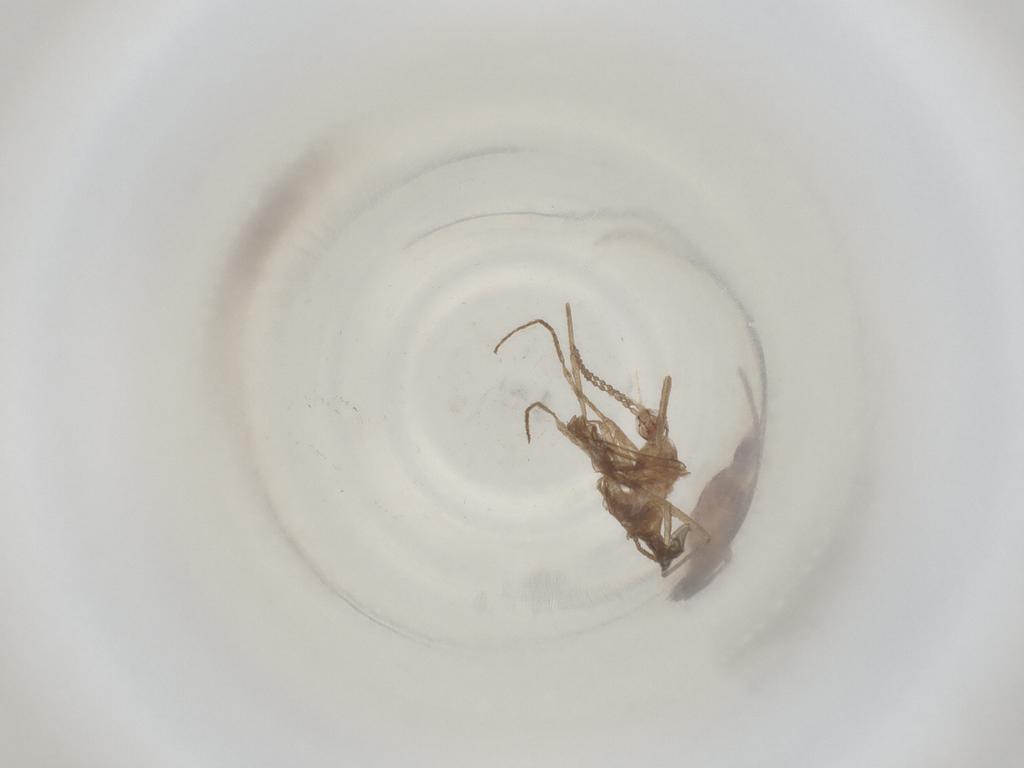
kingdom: Animalia
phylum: Arthropoda
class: Insecta
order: Diptera
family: Cecidomyiidae
